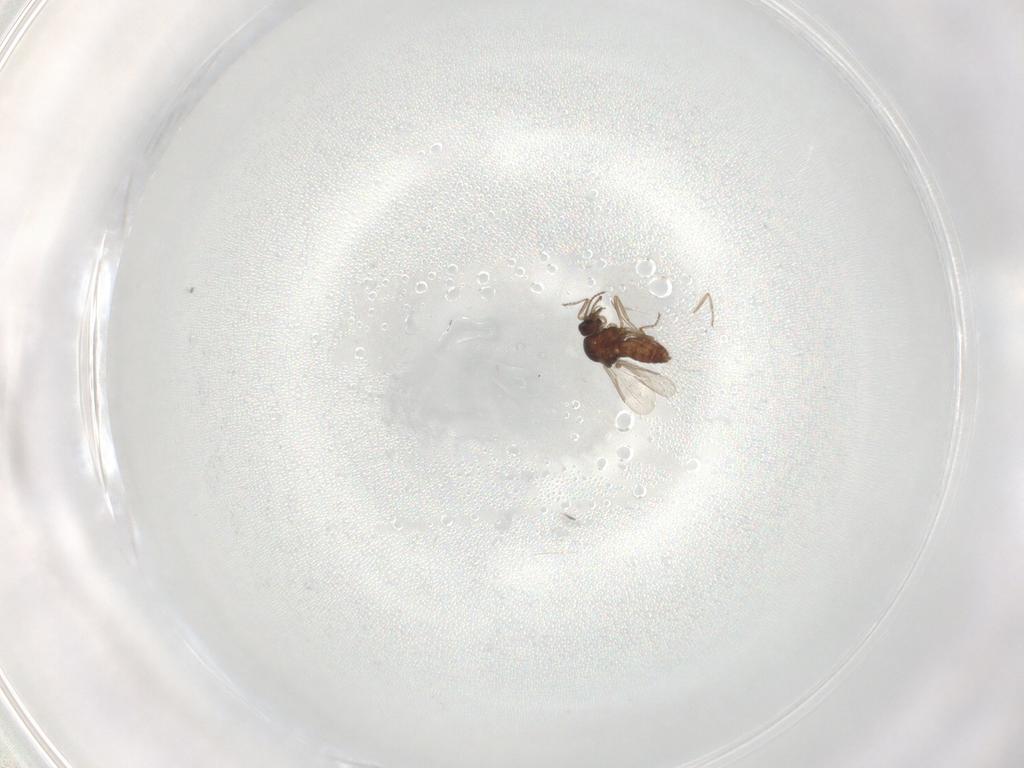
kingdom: Animalia
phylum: Arthropoda
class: Insecta
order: Diptera
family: Ceratopogonidae
